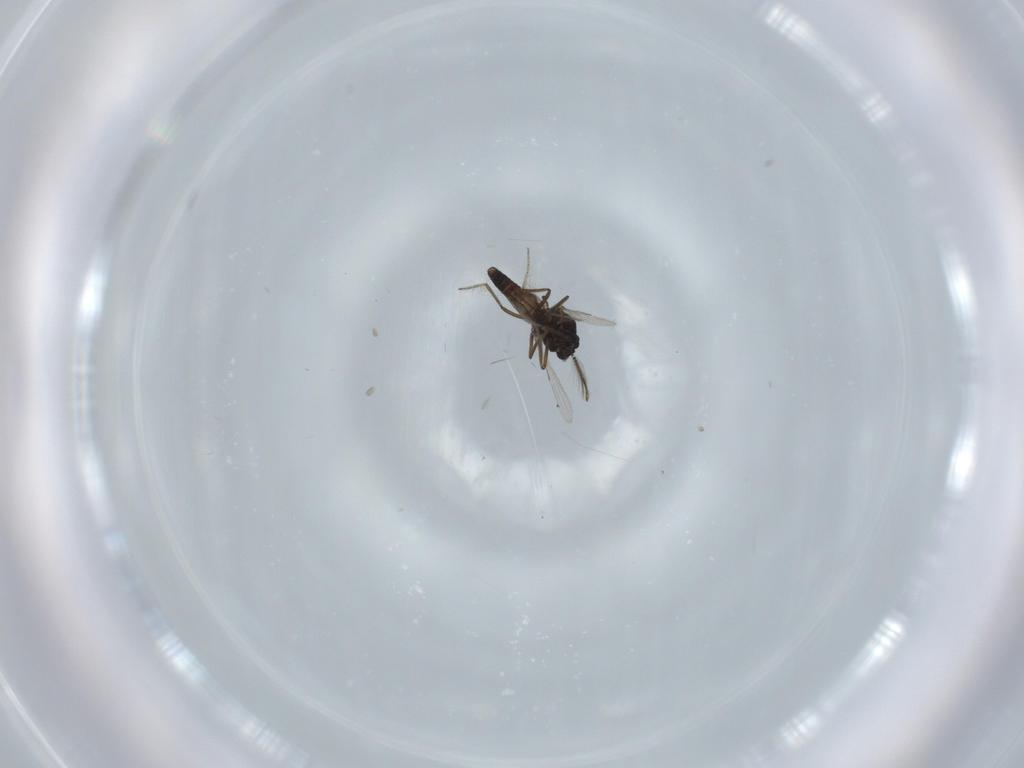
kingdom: Animalia
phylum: Arthropoda
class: Insecta
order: Diptera
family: Ceratopogonidae
